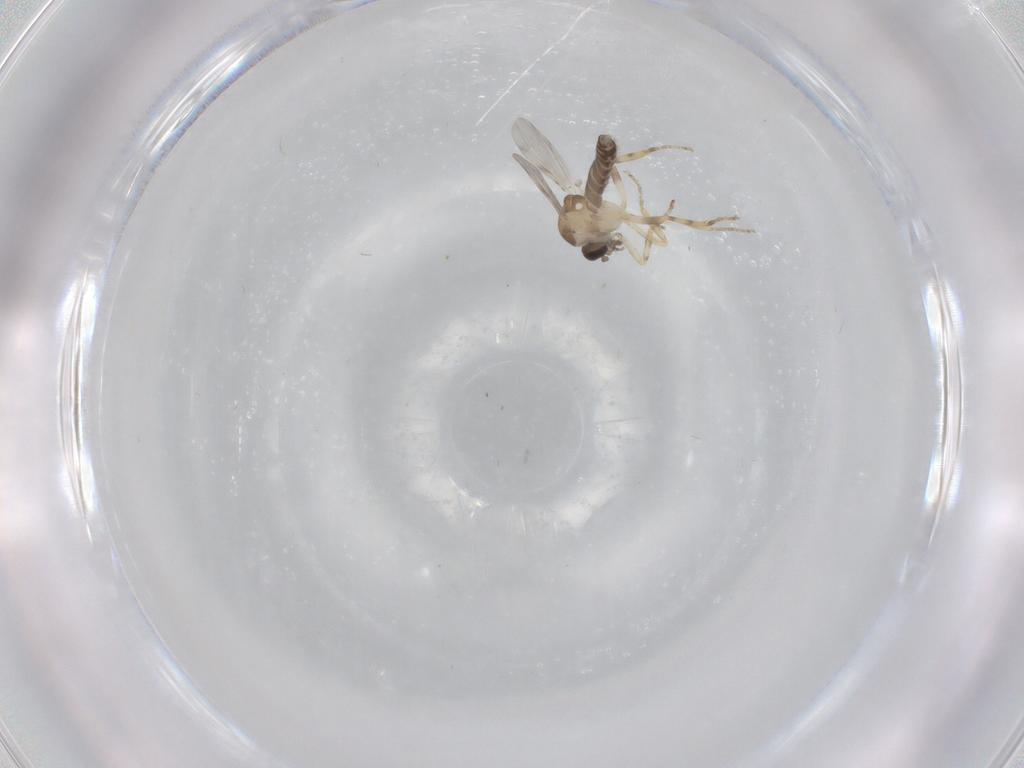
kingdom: Animalia
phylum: Arthropoda
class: Insecta
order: Diptera
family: Ceratopogonidae
